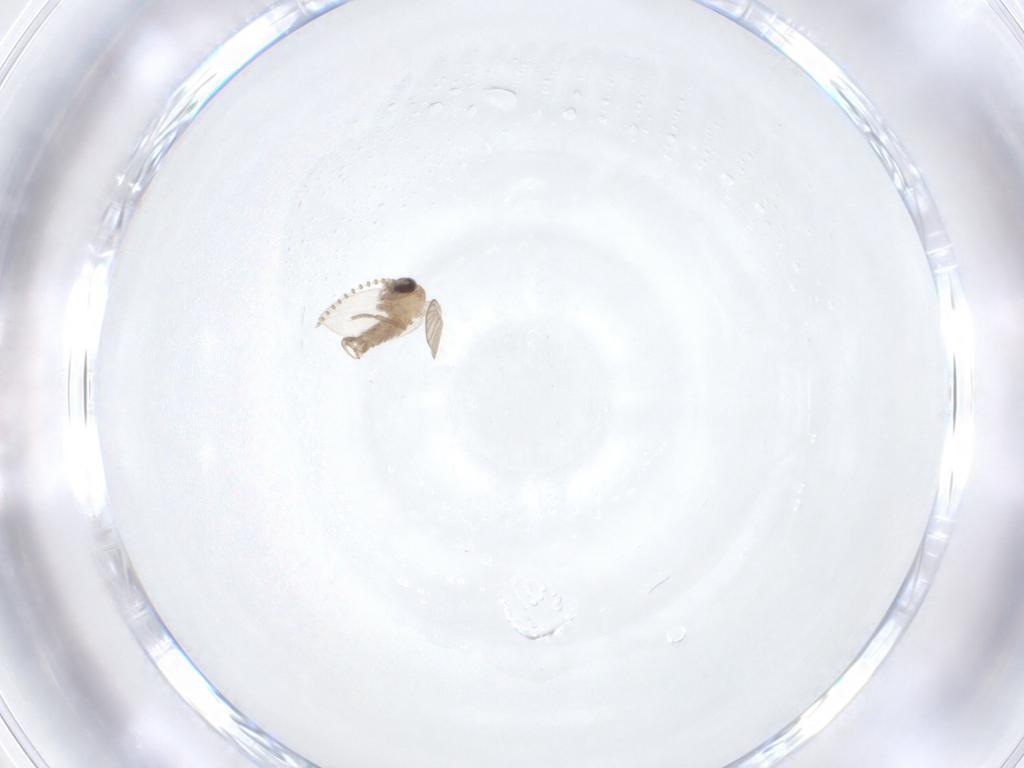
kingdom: Animalia
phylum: Arthropoda
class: Insecta
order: Diptera
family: Psychodidae
